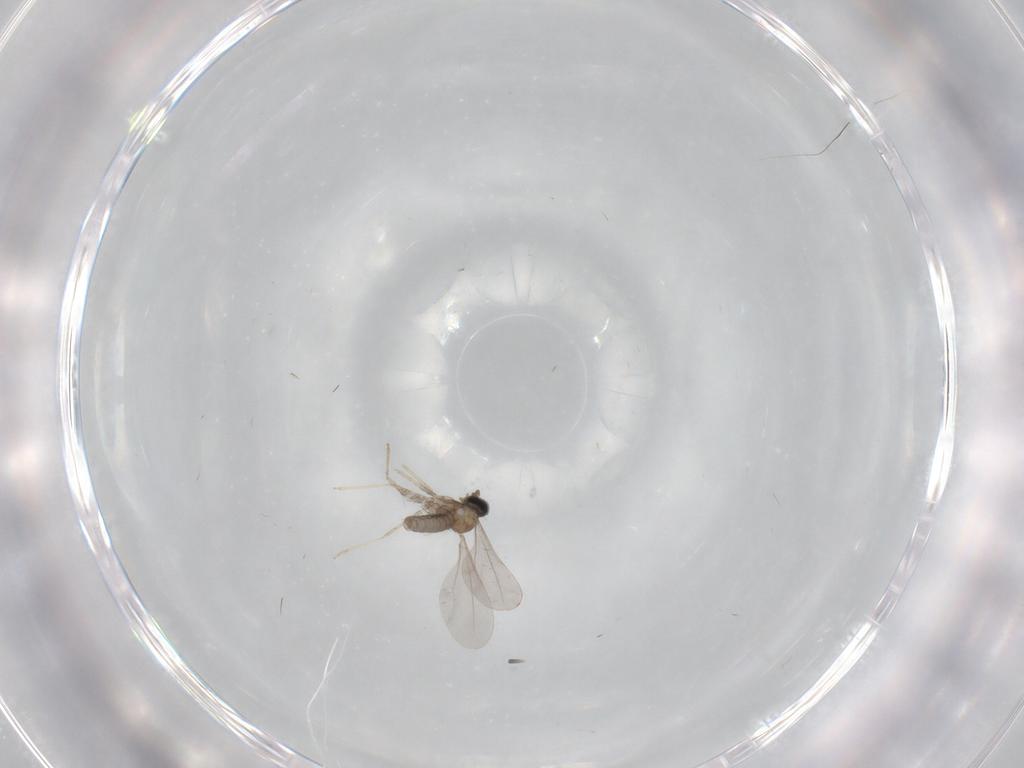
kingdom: Animalia
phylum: Arthropoda
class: Insecta
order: Diptera
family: Cecidomyiidae
